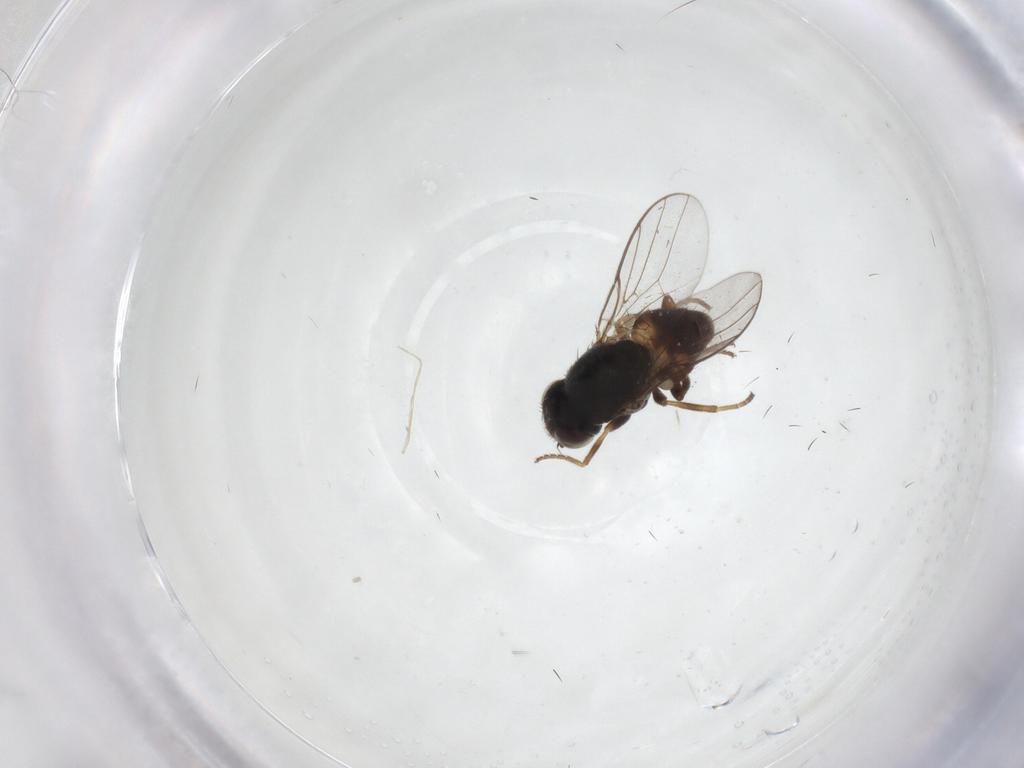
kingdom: Animalia
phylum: Arthropoda
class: Insecta
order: Diptera
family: Chloropidae
